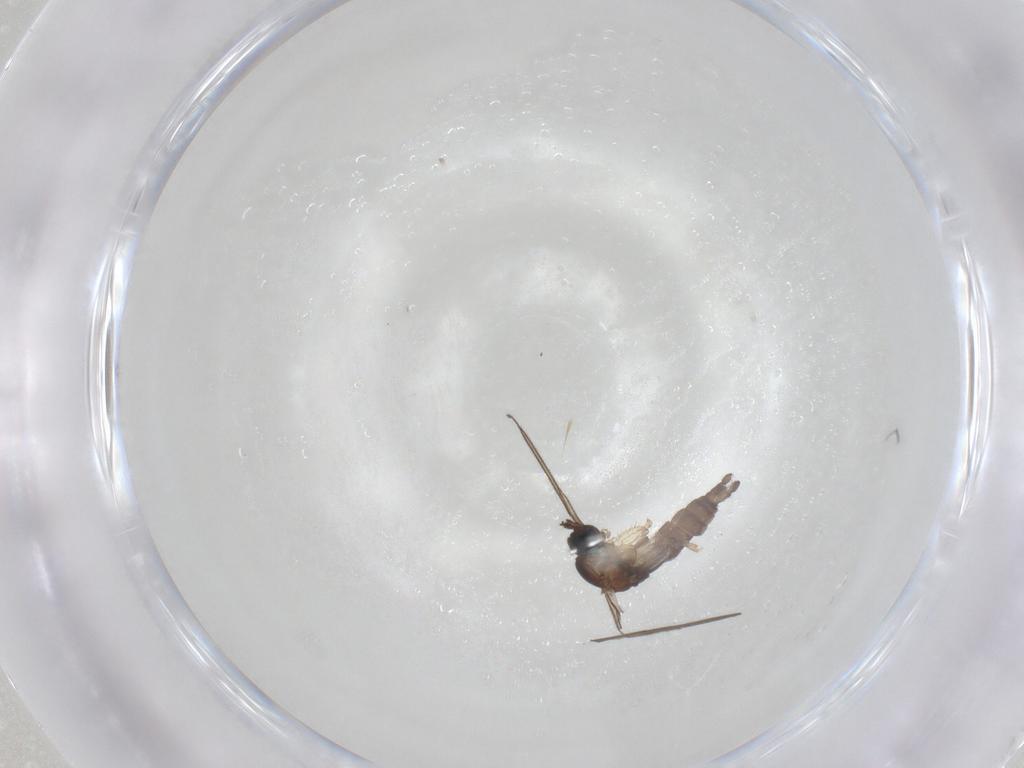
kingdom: Animalia
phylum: Arthropoda
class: Insecta
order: Diptera
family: Sciaridae
